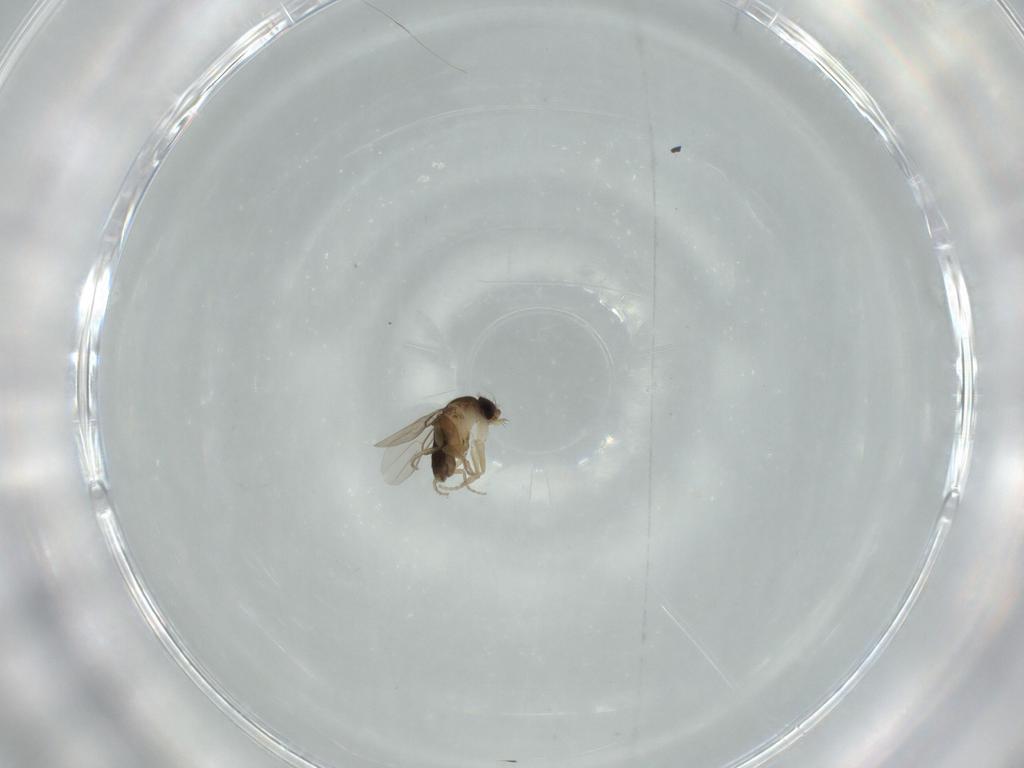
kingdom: Animalia
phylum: Arthropoda
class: Insecta
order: Diptera
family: Phoridae
